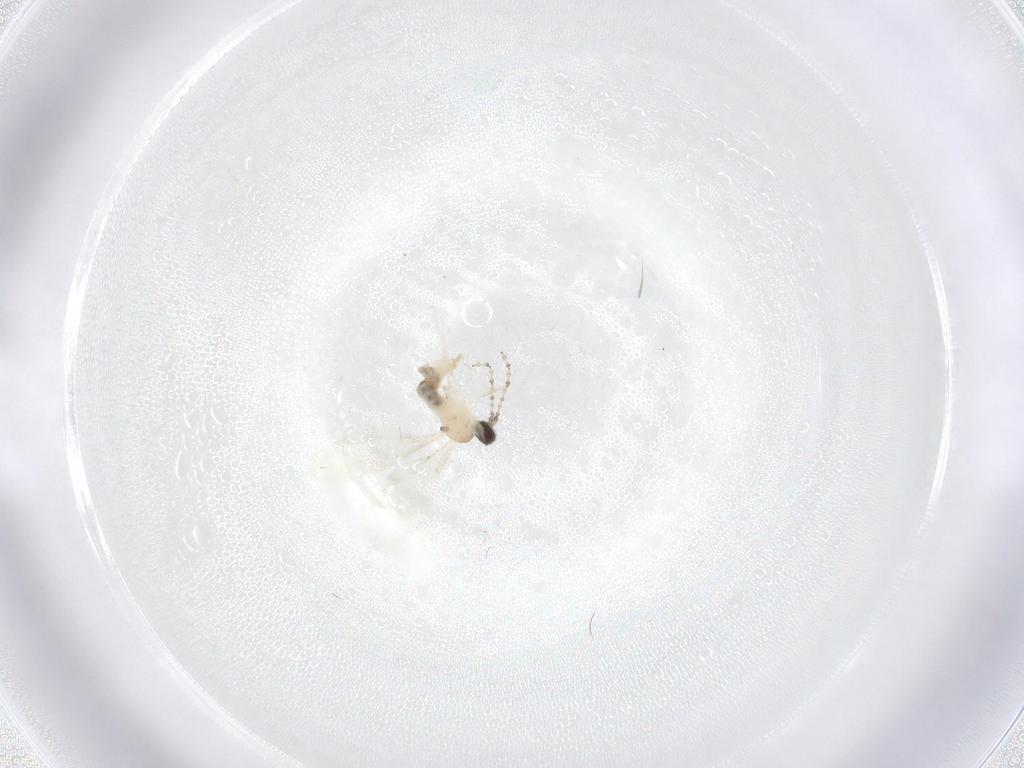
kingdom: Animalia
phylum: Arthropoda
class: Insecta
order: Diptera
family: Cecidomyiidae
